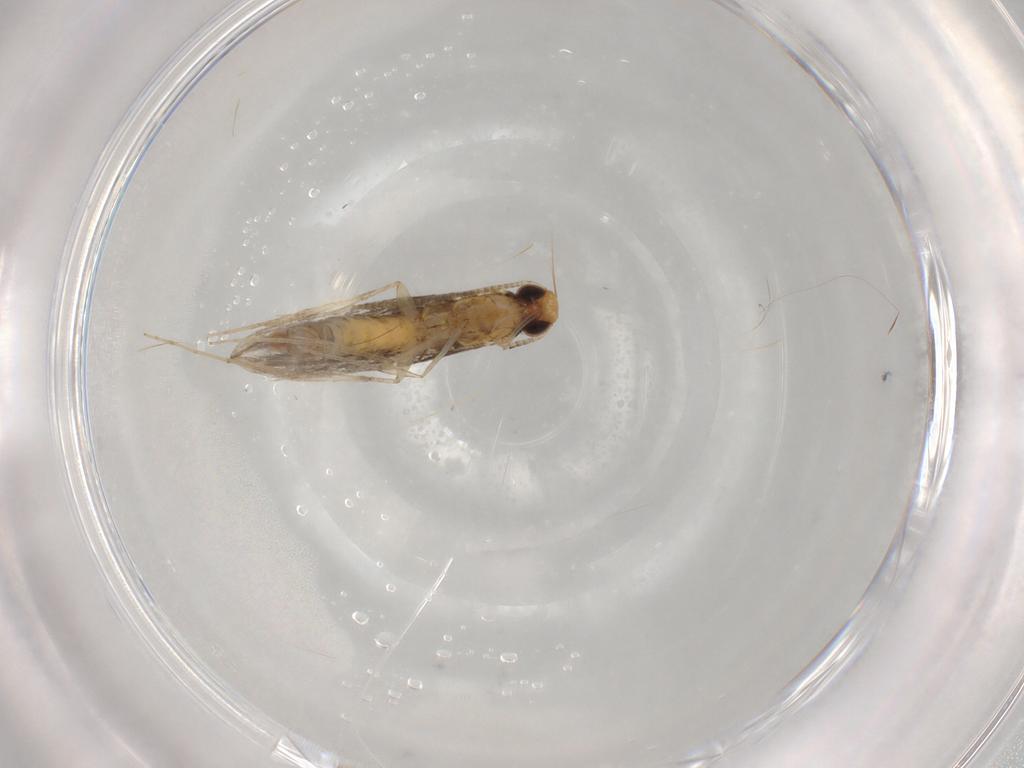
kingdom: Animalia
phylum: Arthropoda
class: Insecta
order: Lepidoptera
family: Gracillariidae
